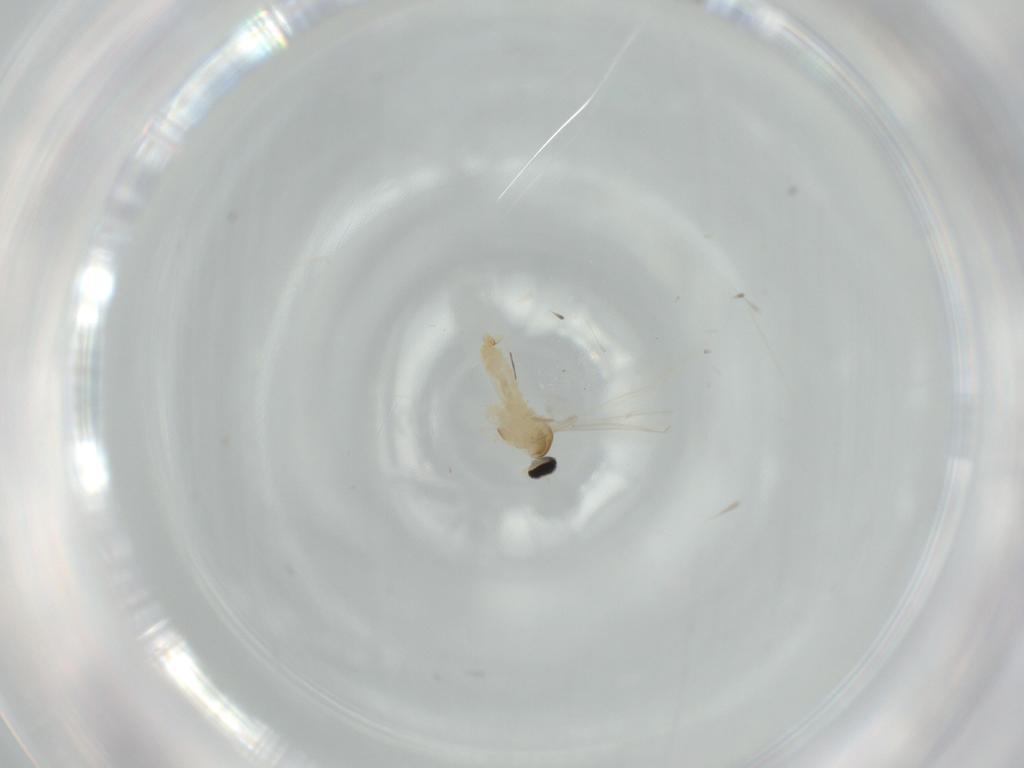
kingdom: Animalia
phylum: Arthropoda
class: Insecta
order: Diptera
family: Cecidomyiidae
